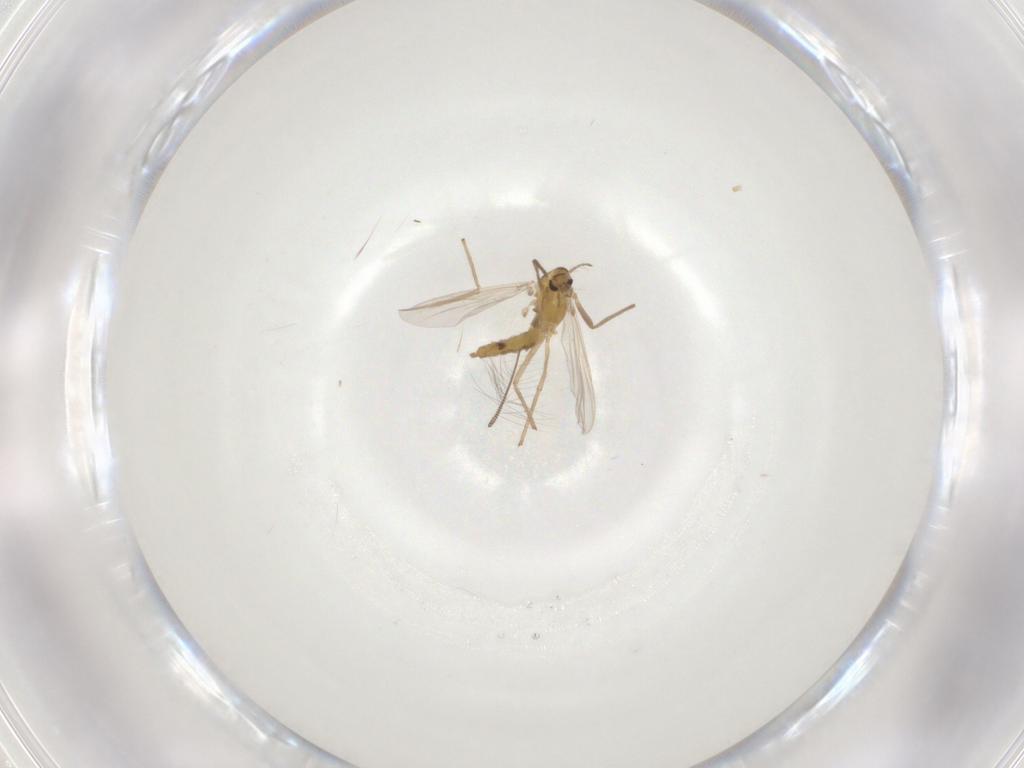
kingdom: Animalia
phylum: Arthropoda
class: Insecta
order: Diptera
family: Chironomidae
